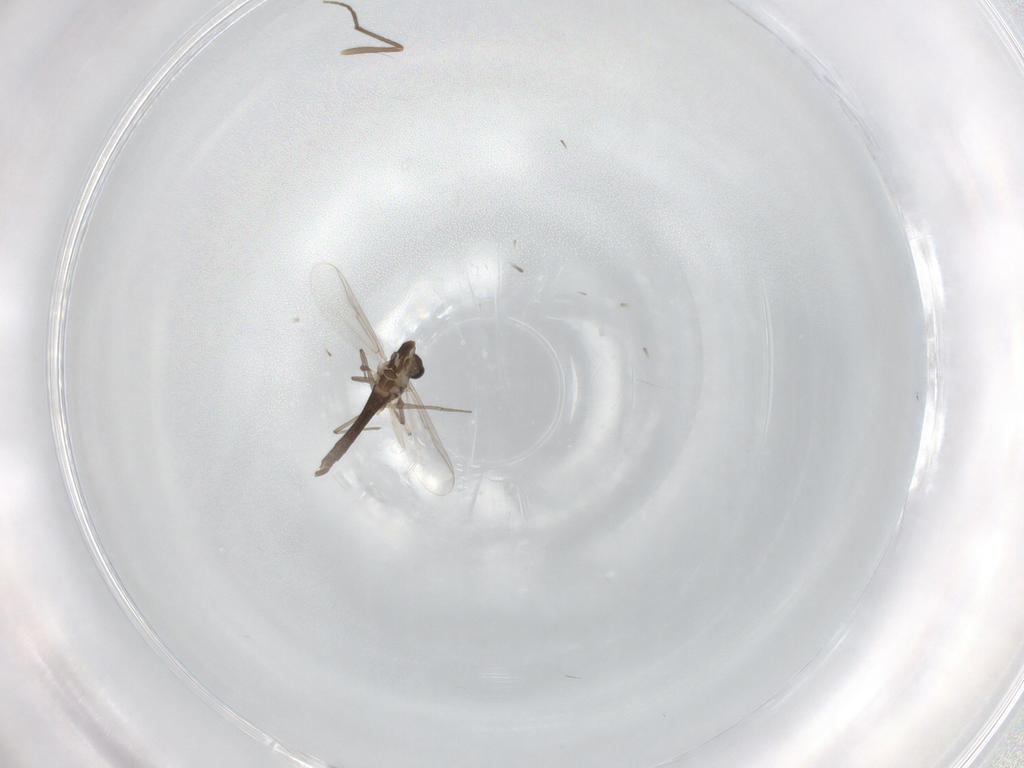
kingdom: Animalia
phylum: Arthropoda
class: Insecta
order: Diptera
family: Chironomidae
